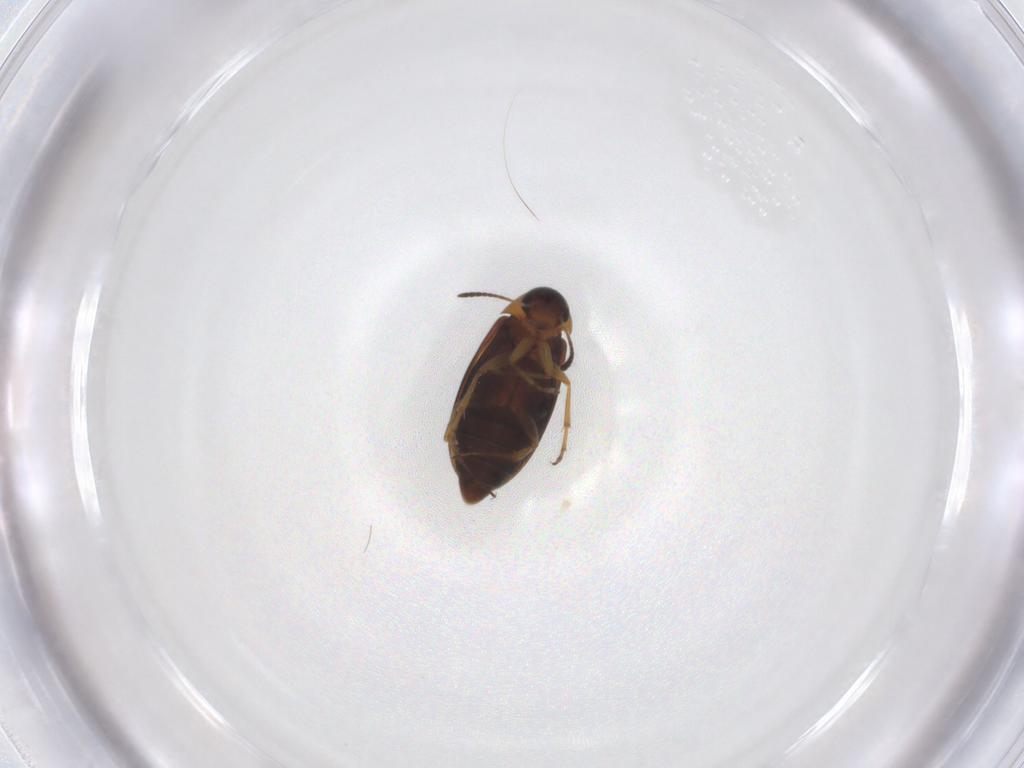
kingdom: Animalia
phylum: Arthropoda
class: Insecta
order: Coleoptera
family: Scraptiidae
